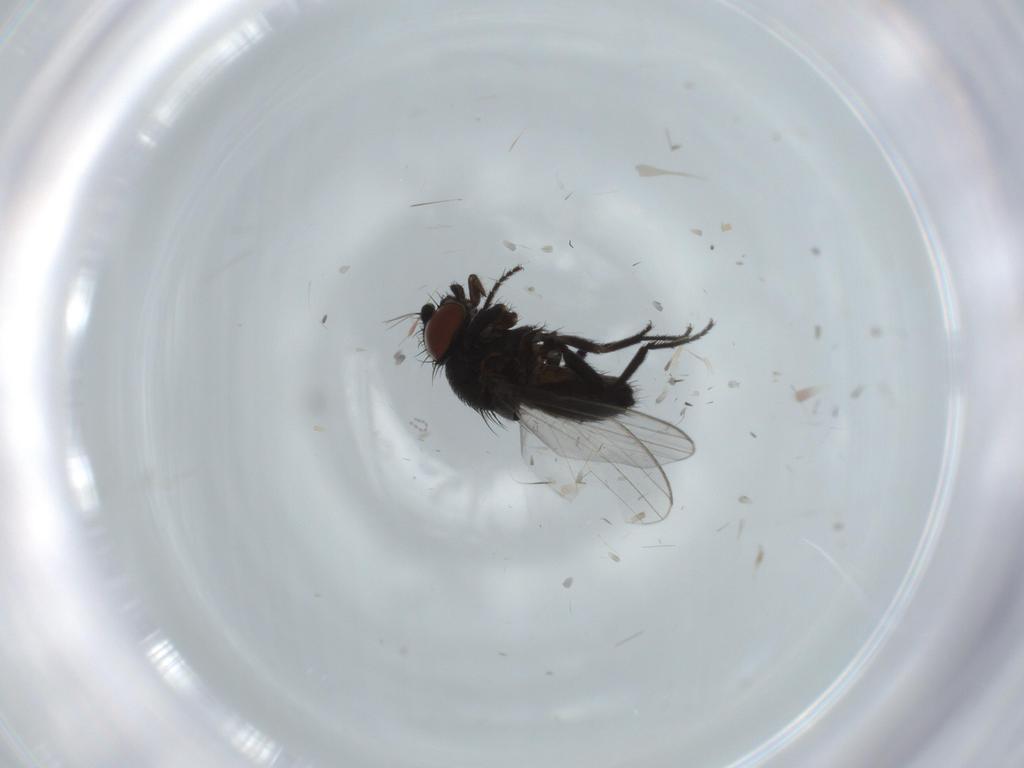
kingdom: Animalia
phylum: Arthropoda
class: Insecta
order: Diptera
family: Milichiidae
